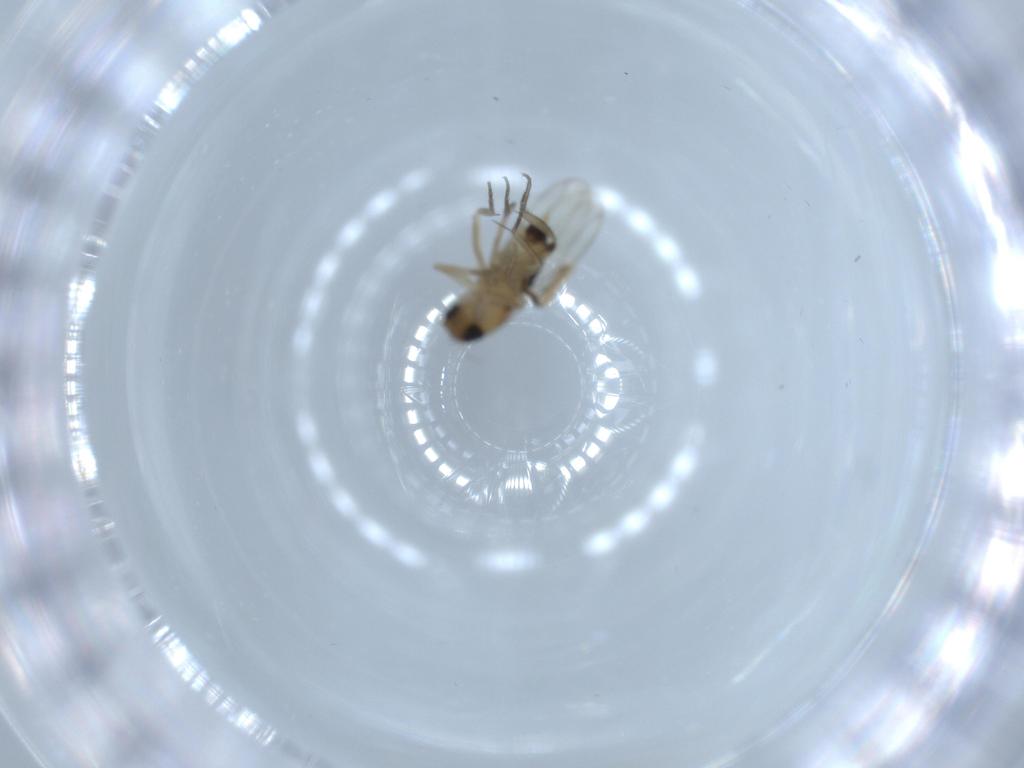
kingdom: Animalia
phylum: Arthropoda
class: Insecta
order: Diptera
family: Phoridae
